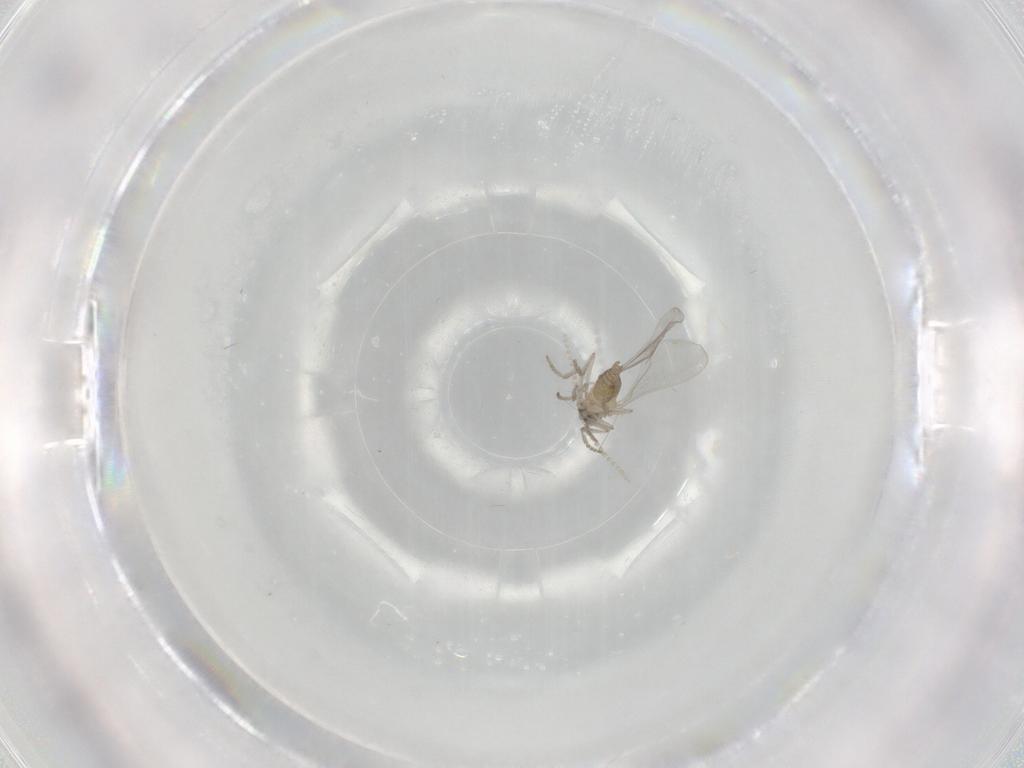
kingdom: Animalia
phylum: Arthropoda
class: Insecta
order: Diptera
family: Cecidomyiidae
